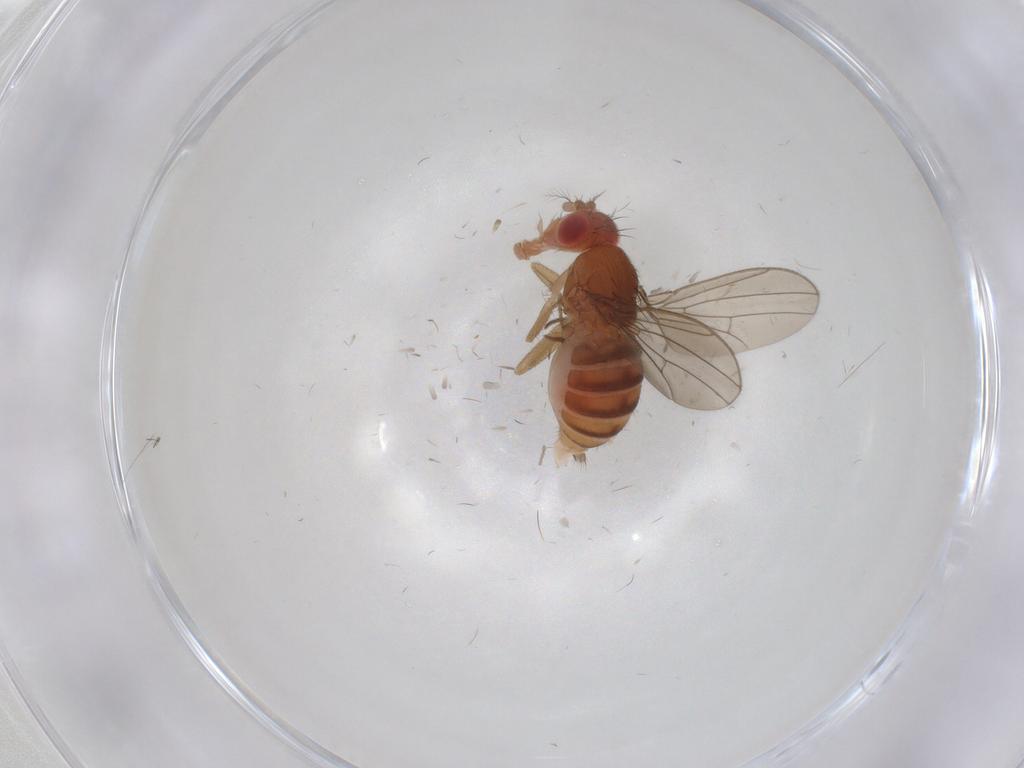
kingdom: Animalia
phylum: Arthropoda
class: Insecta
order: Diptera
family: Drosophilidae
